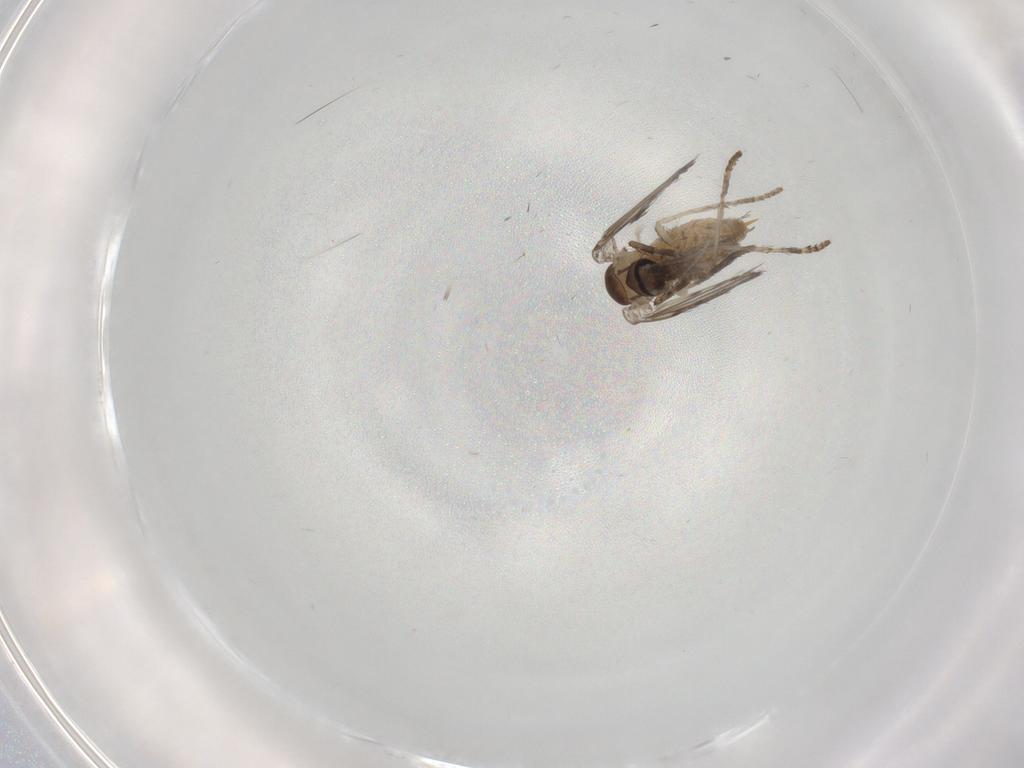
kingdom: Animalia
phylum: Arthropoda
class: Insecta
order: Diptera
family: Psychodidae
